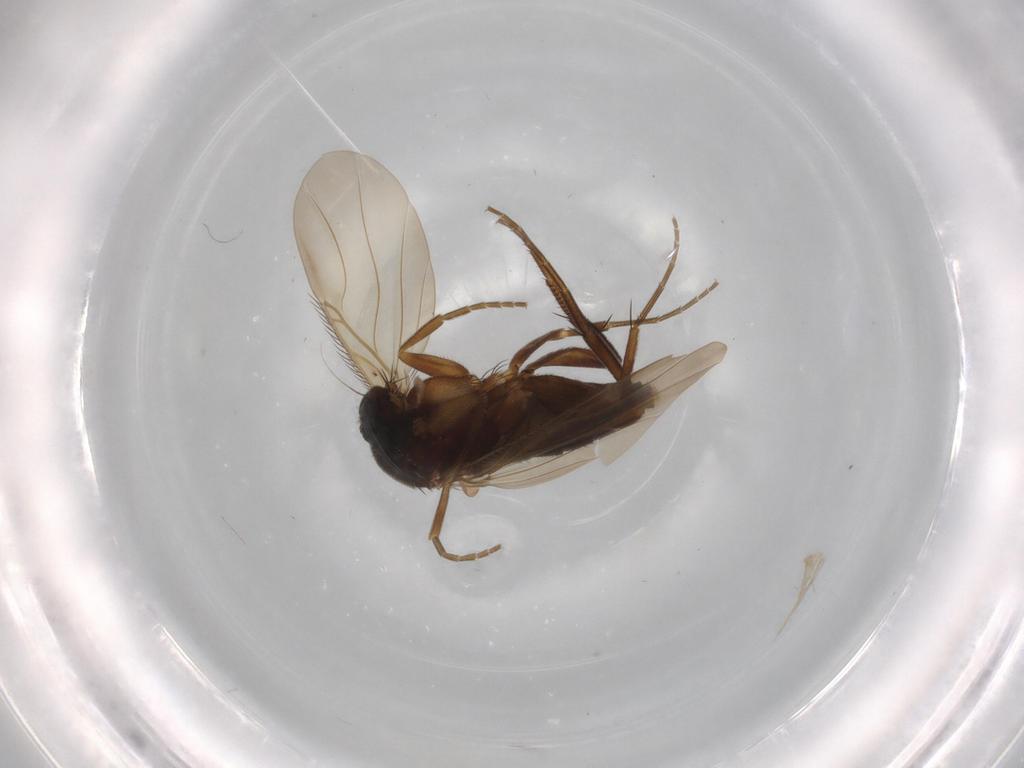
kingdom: Animalia
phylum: Arthropoda
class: Insecta
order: Diptera
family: Phoridae
